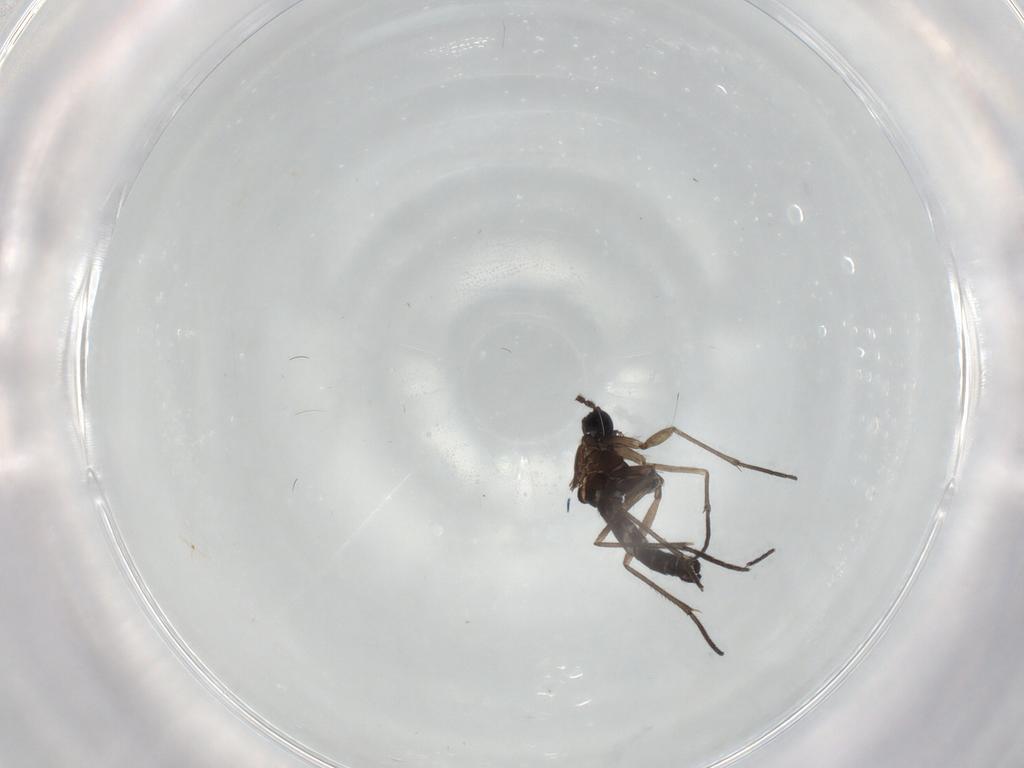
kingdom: Animalia
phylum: Arthropoda
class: Insecta
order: Diptera
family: Sciaridae
